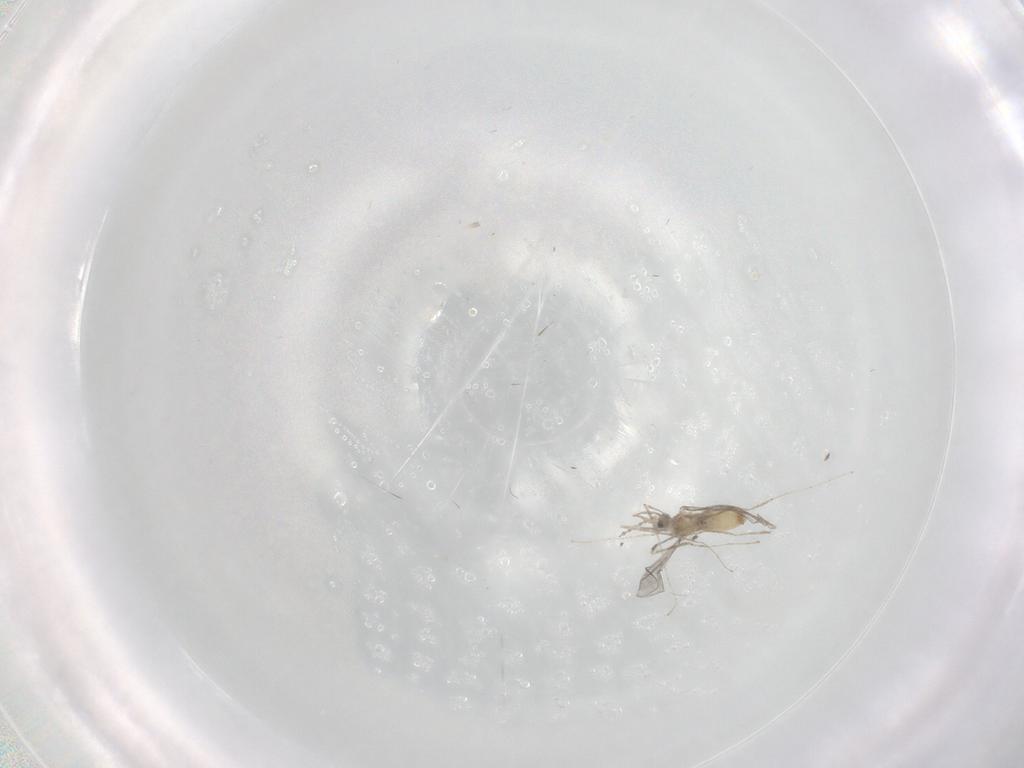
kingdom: Animalia
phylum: Arthropoda
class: Insecta
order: Diptera
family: Cecidomyiidae
